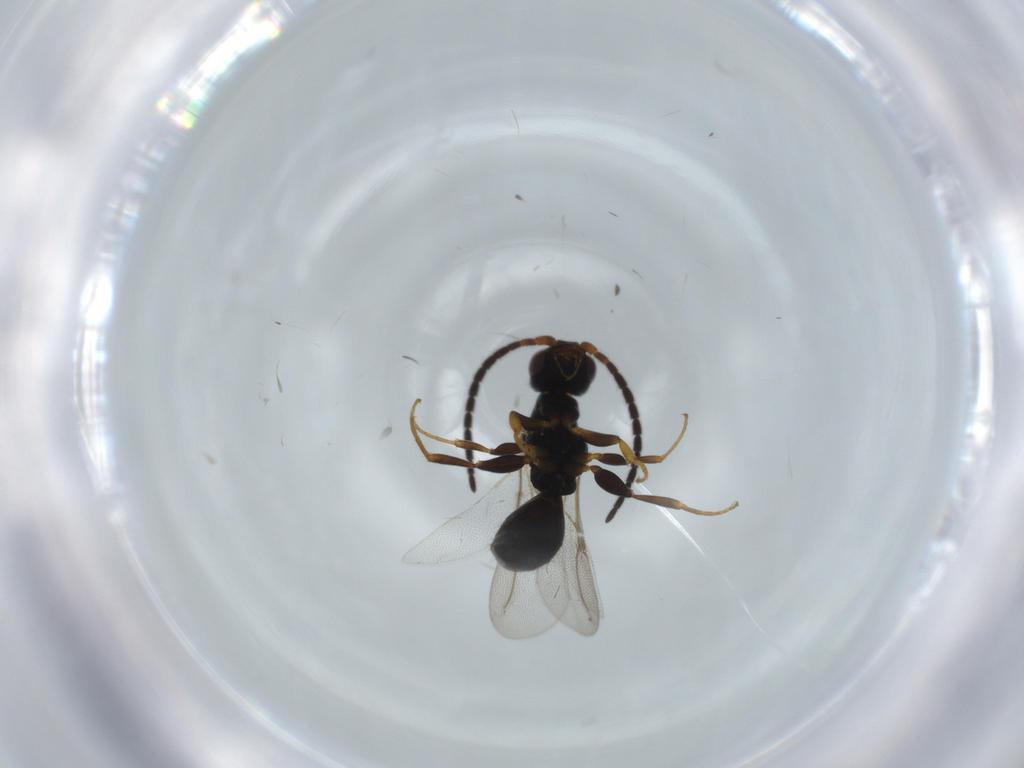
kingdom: Animalia
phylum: Arthropoda
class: Insecta
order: Hymenoptera
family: Bethylidae
